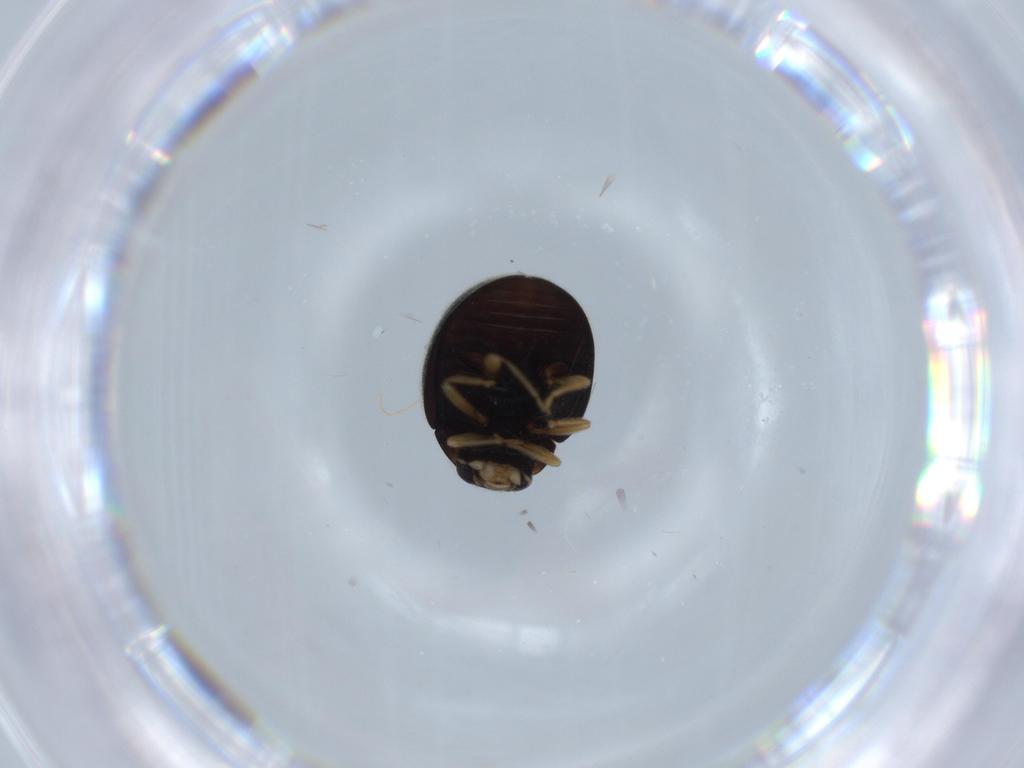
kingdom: Animalia
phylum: Arthropoda
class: Insecta
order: Coleoptera
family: Coccinellidae
